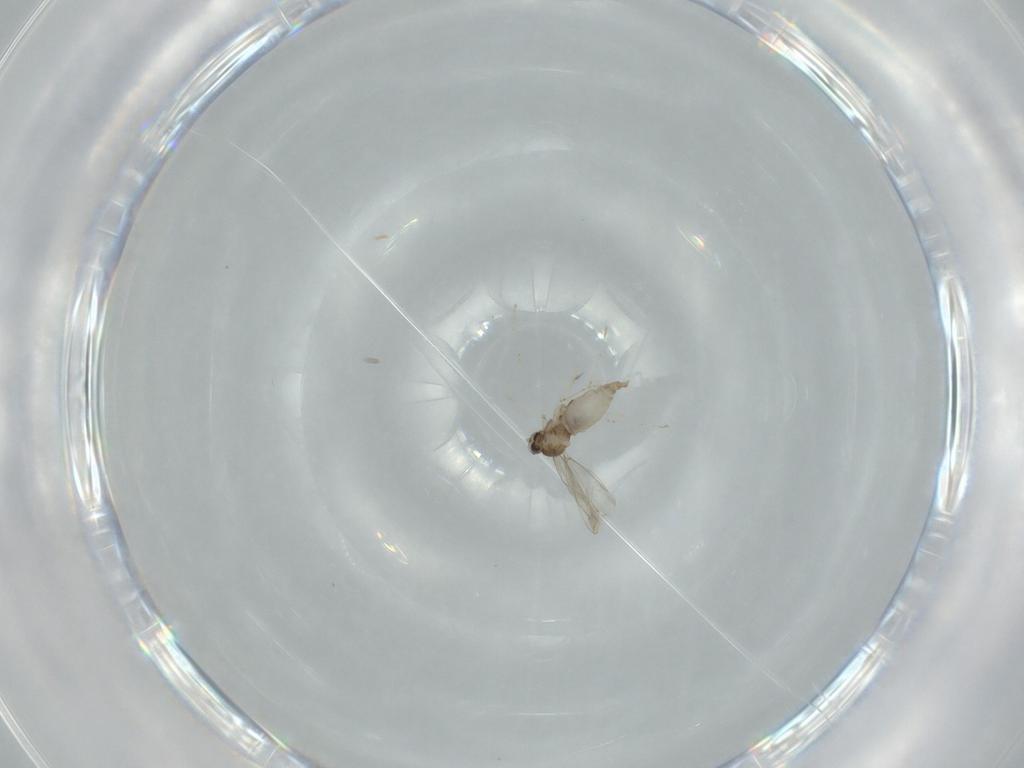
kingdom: Animalia
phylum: Arthropoda
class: Insecta
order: Diptera
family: Cecidomyiidae
